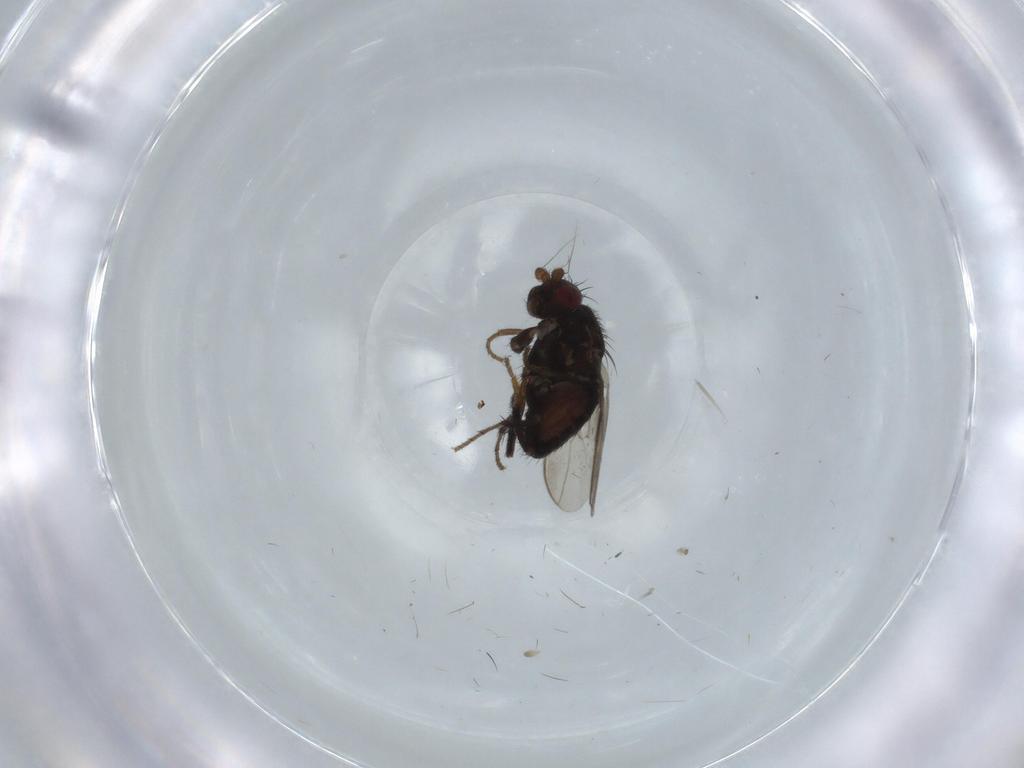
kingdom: Animalia
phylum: Arthropoda
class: Insecta
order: Diptera
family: Cecidomyiidae
